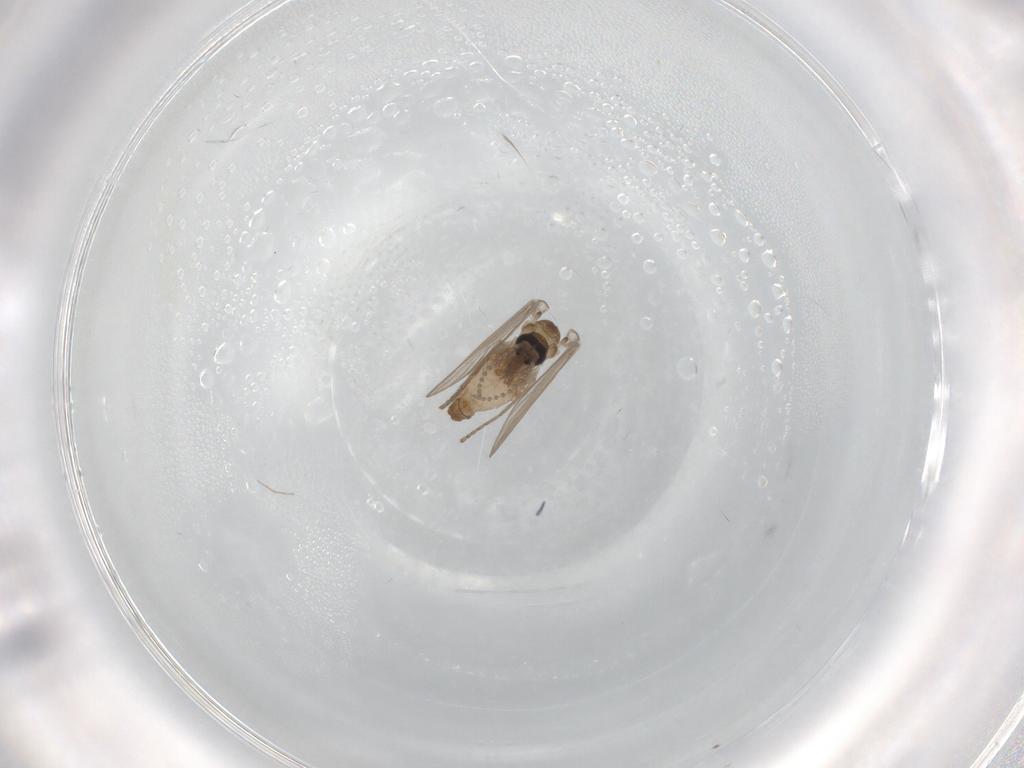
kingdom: Animalia
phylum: Arthropoda
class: Insecta
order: Diptera
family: Psychodidae
